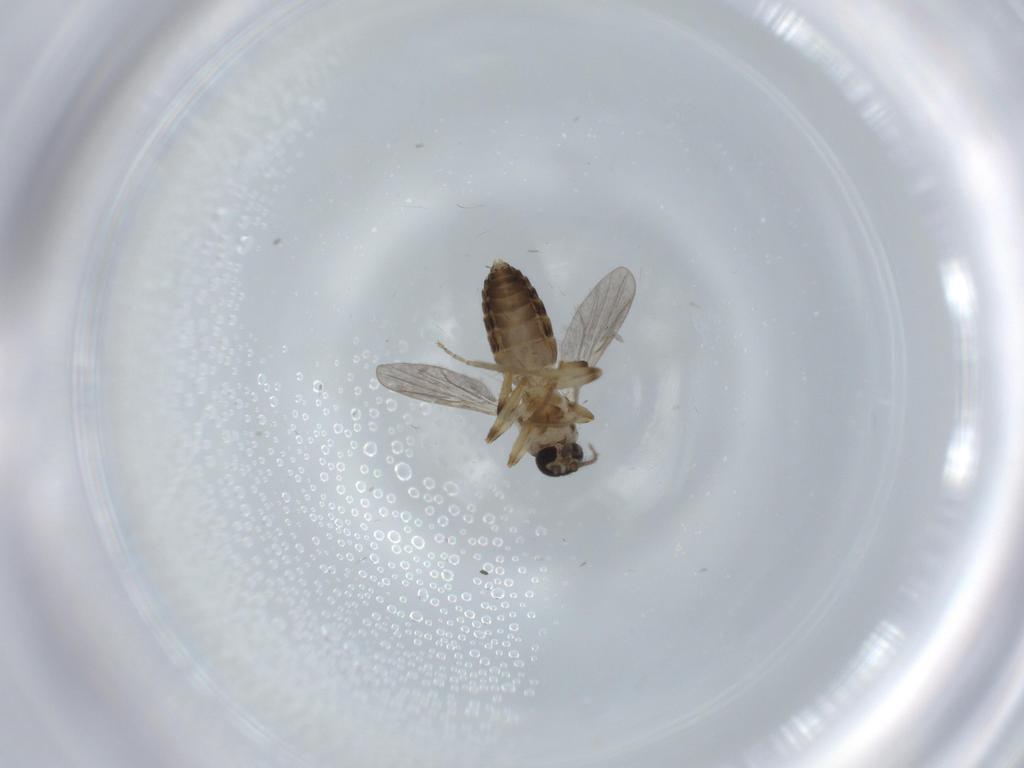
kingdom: Animalia
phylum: Arthropoda
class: Insecta
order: Diptera
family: Ceratopogonidae
